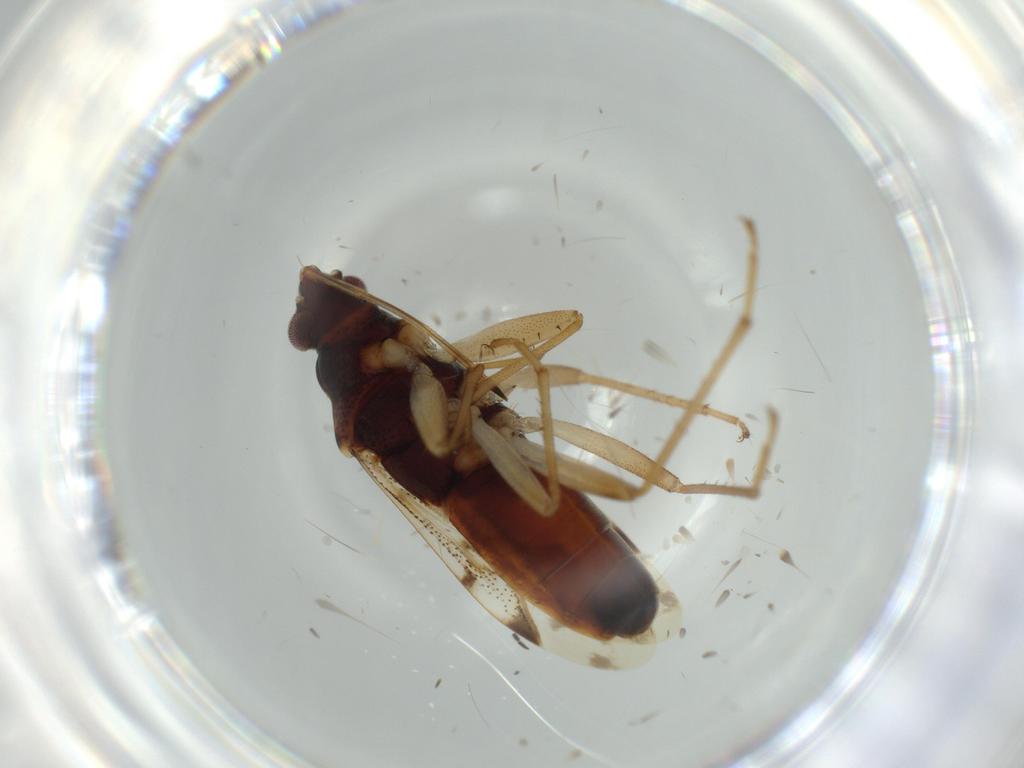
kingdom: Animalia
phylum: Arthropoda
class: Insecta
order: Hemiptera
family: Rhyparochromidae
